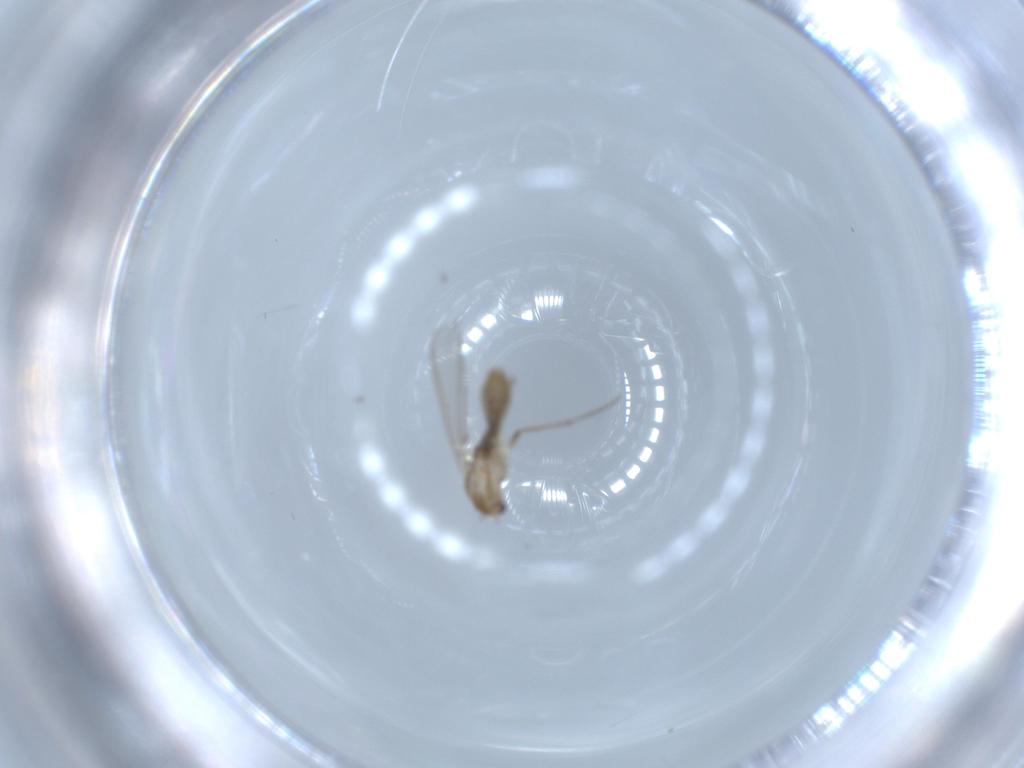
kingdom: Animalia
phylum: Arthropoda
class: Insecta
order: Diptera
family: Chironomidae
